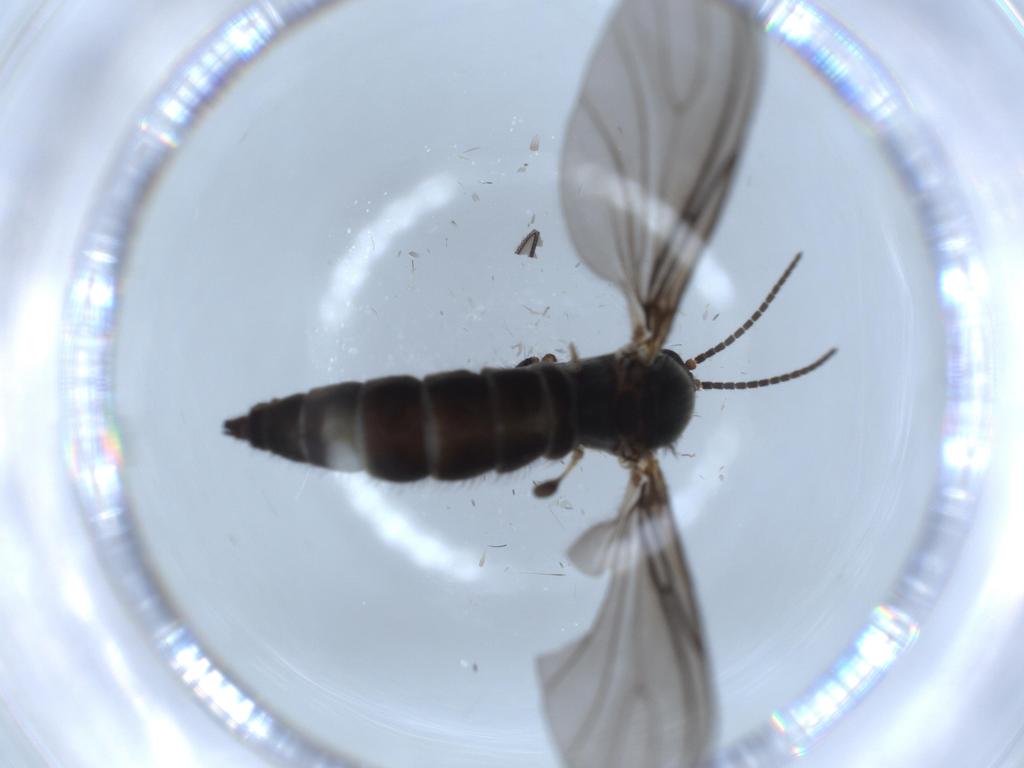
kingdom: Animalia
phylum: Arthropoda
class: Insecta
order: Diptera
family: Sciaridae
